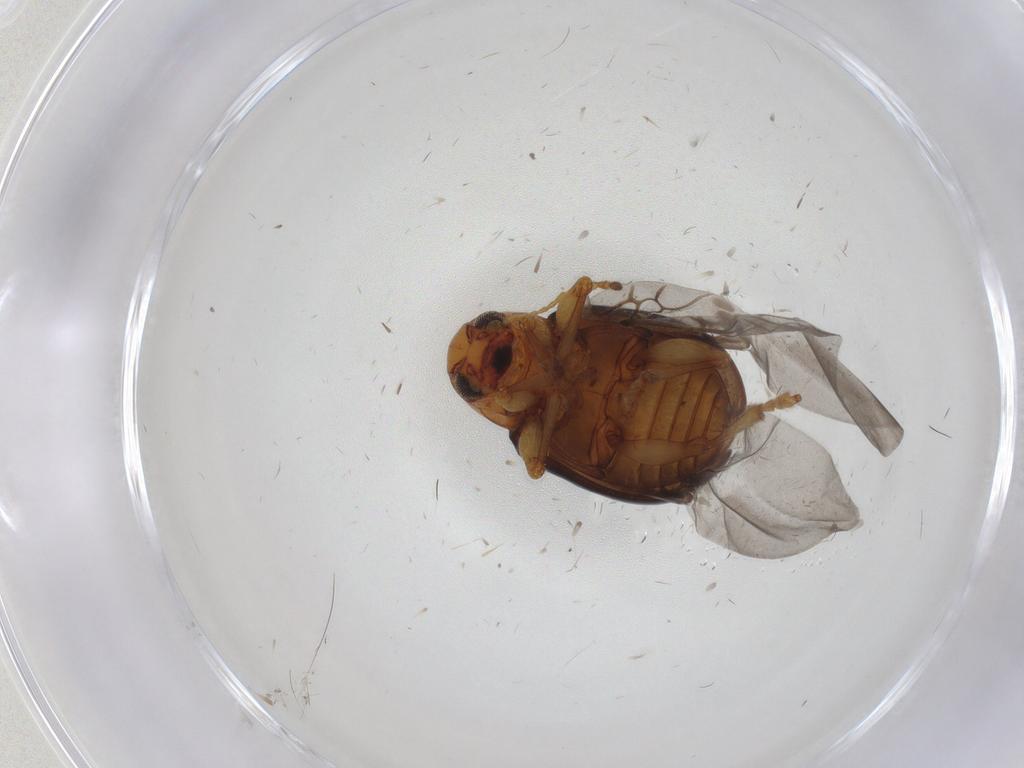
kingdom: Animalia
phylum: Arthropoda
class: Insecta
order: Coleoptera
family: Chrysomelidae
